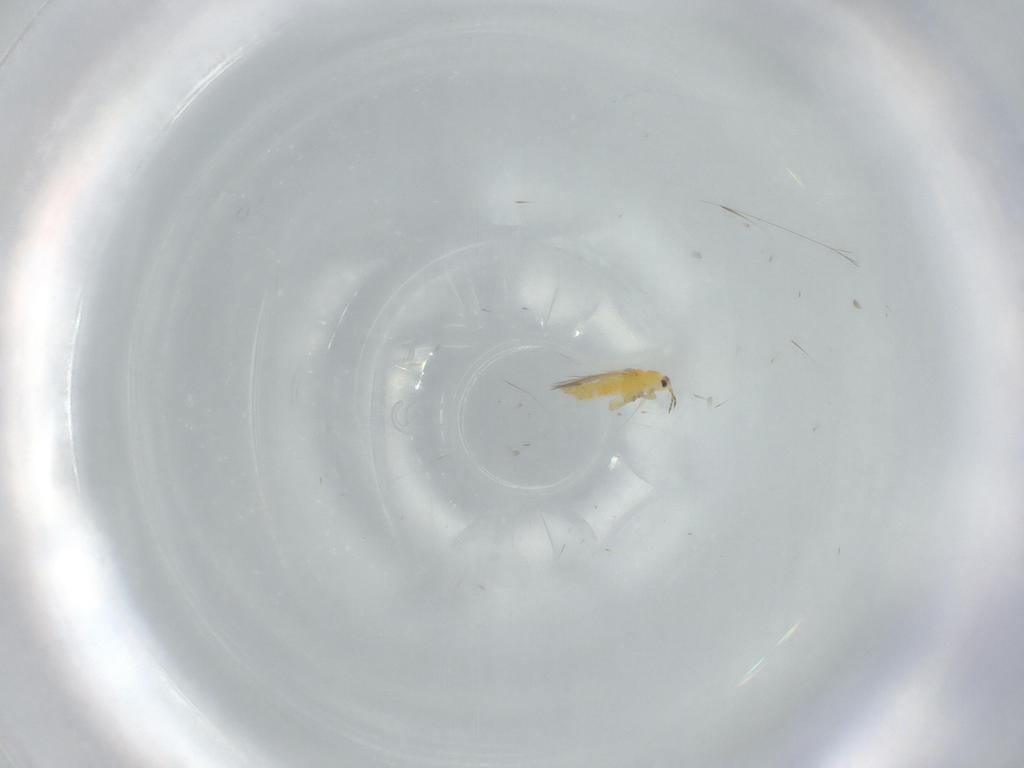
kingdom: Animalia
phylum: Arthropoda
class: Insecta
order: Thysanoptera
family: Thripidae
